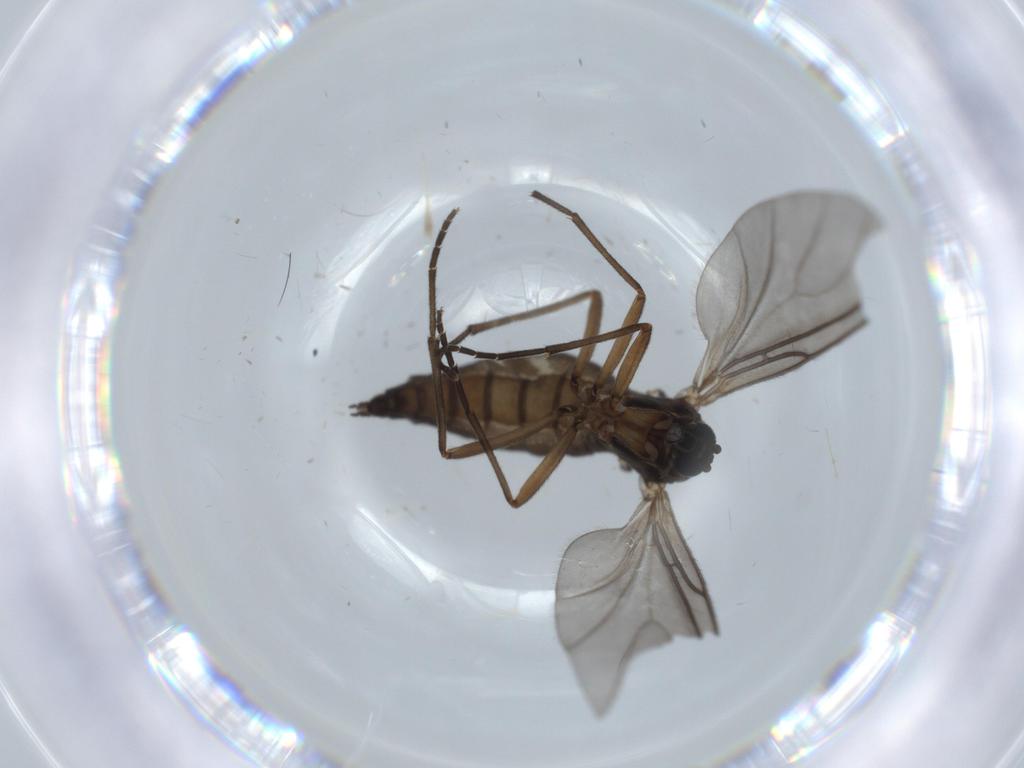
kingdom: Animalia
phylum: Arthropoda
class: Insecta
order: Diptera
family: Sciaridae
